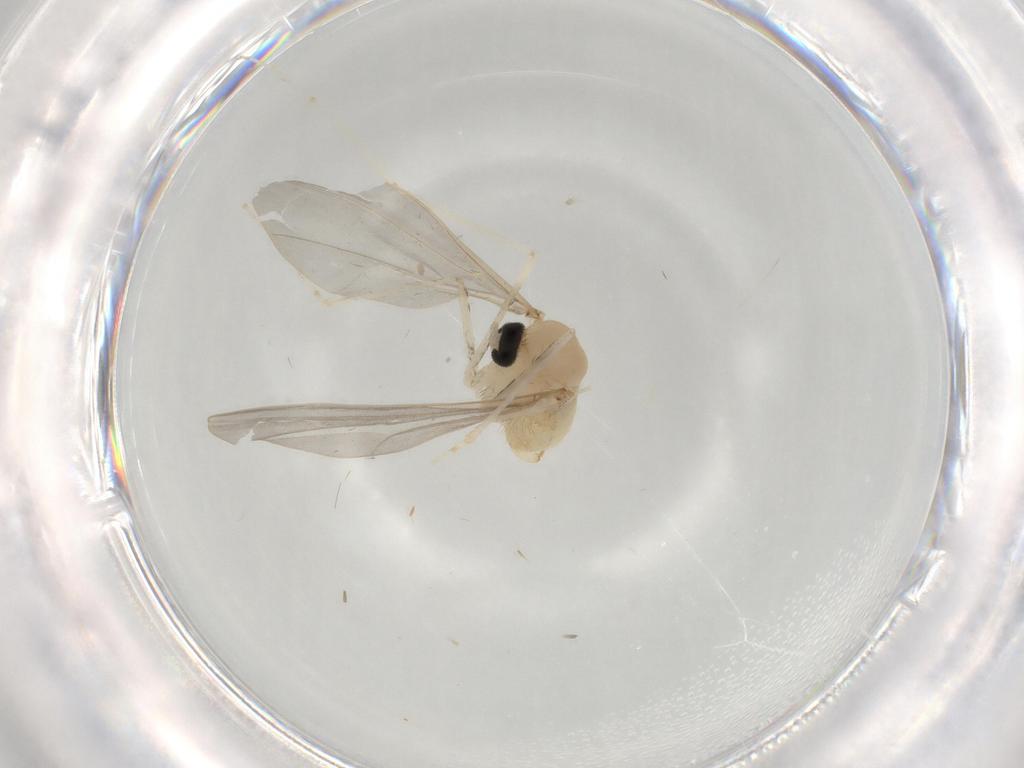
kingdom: Animalia
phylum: Arthropoda
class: Insecta
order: Diptera
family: Cecidomyiidae
